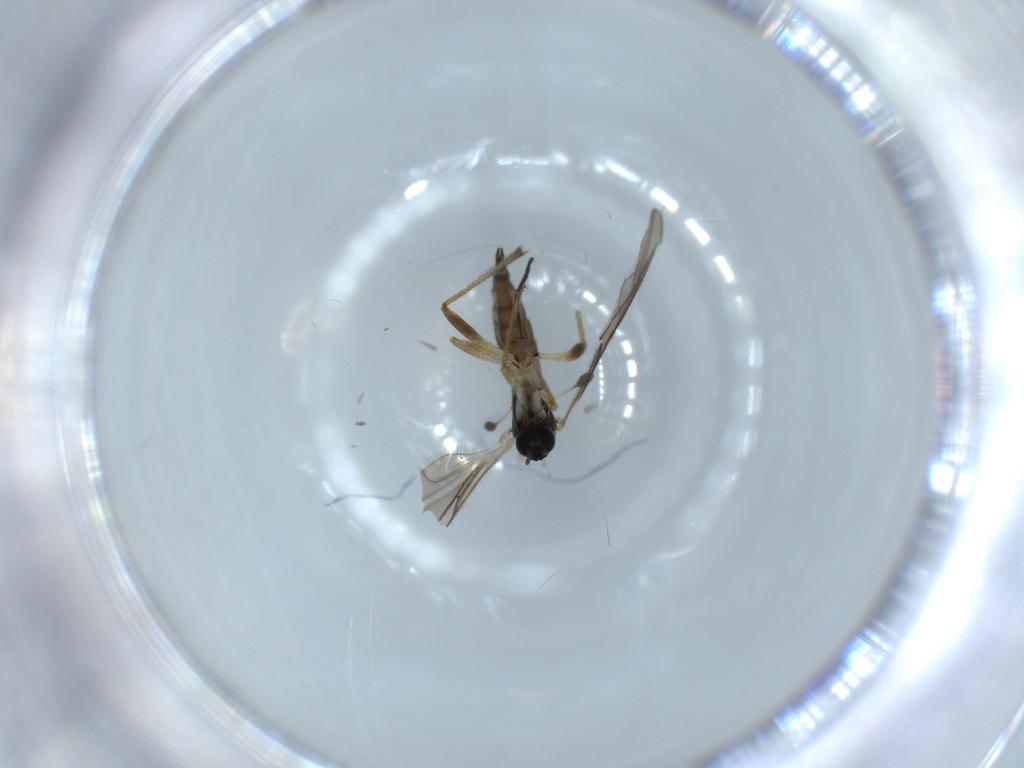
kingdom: Animalia
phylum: Arthropoda
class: Insecta
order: Diptera
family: Sciaridae
